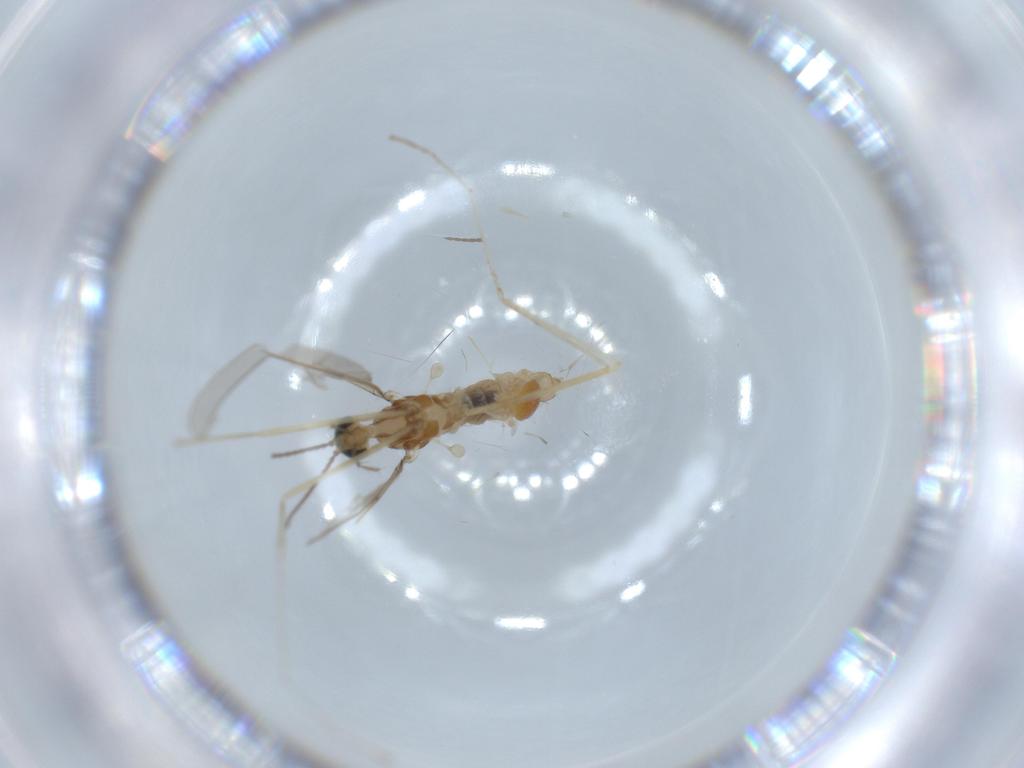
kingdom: Animalia
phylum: Arthropoda
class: Insecta
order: Diptera
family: Cecidomyiidae
